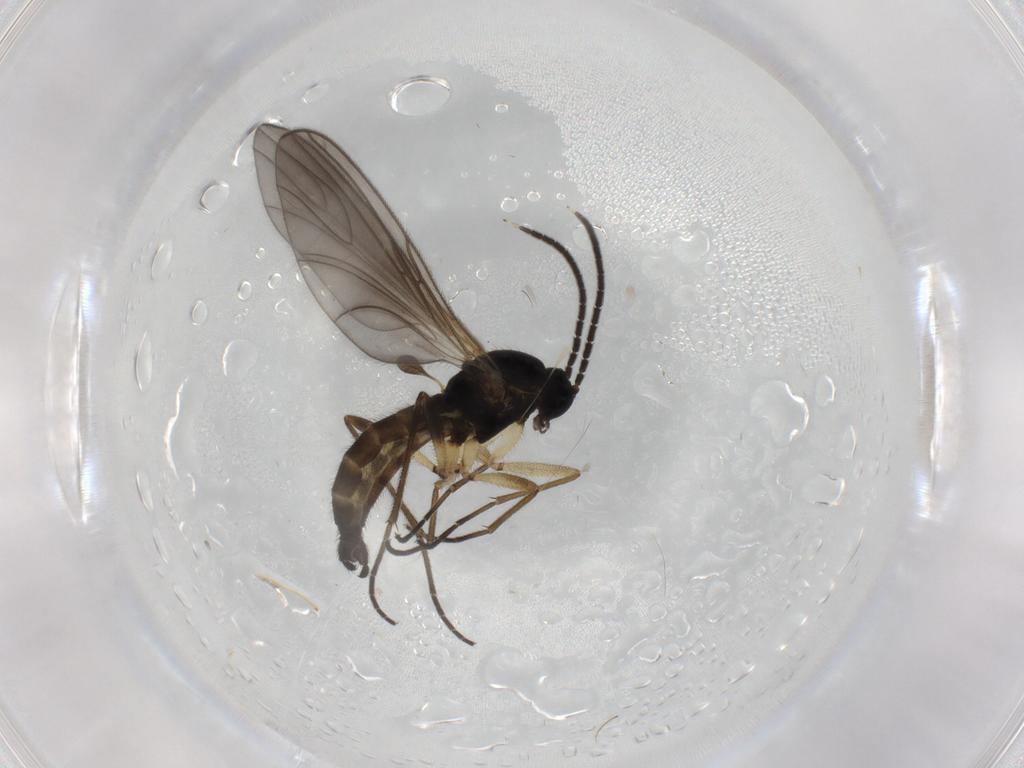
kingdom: Animalia
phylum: Arthropoda
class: Insecta
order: Diptera
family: Sciaridae
